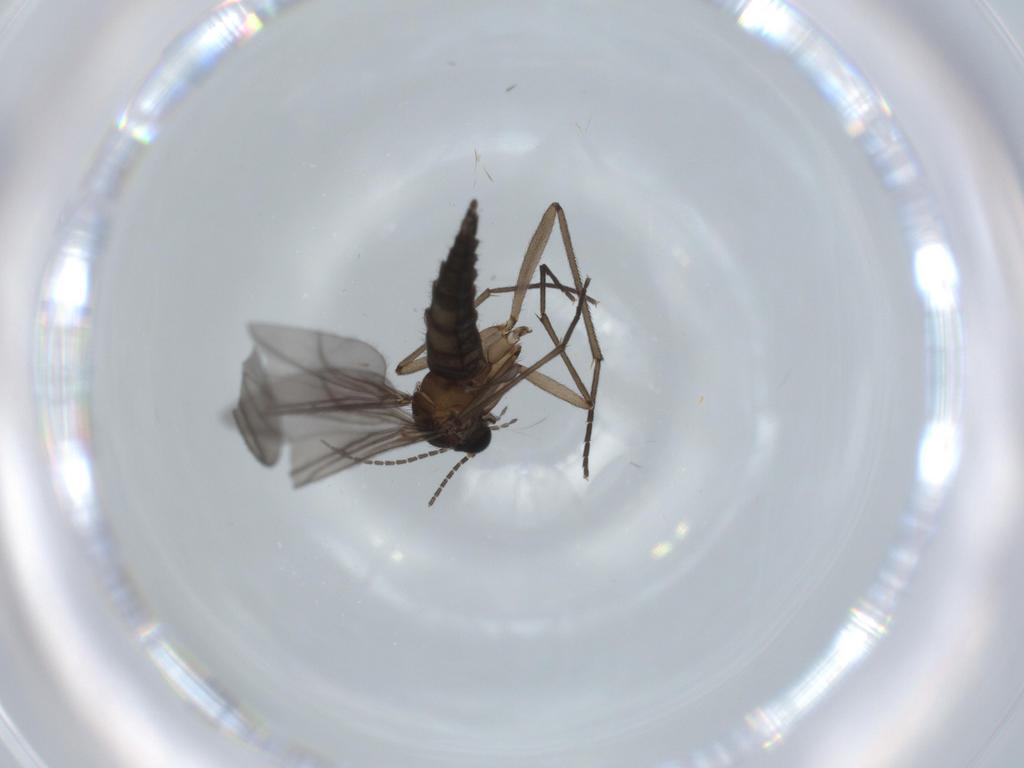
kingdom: Animalia
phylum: Arthropoda
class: Insecta
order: Diptera
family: Sciaridae
